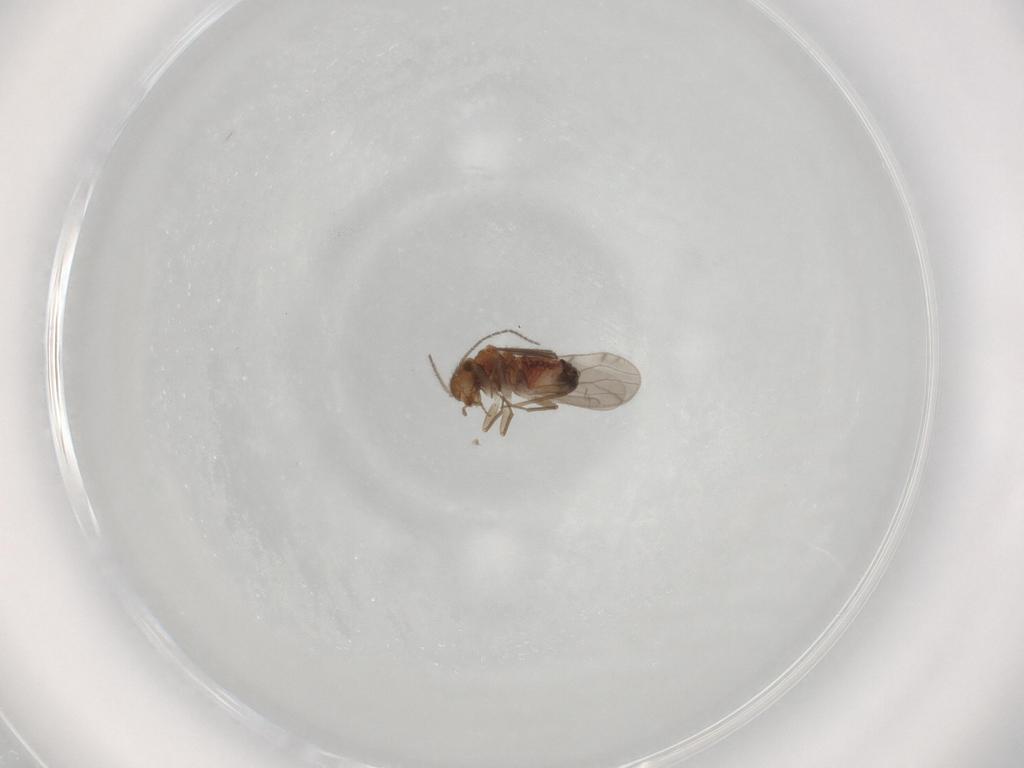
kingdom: Animalia
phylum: Arthropoda
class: Insecta
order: Psocodea
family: Ectopsocidae
